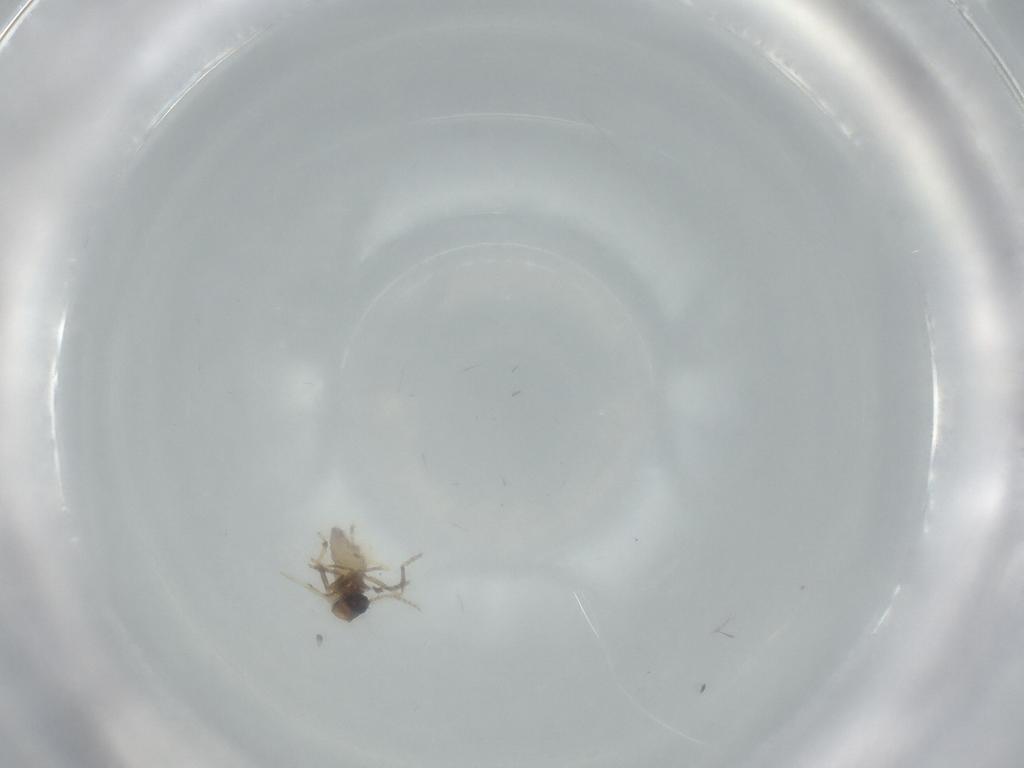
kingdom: Animalia
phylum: Arthropoda
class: Insecta
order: Diptera
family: Ceratopogonidae
